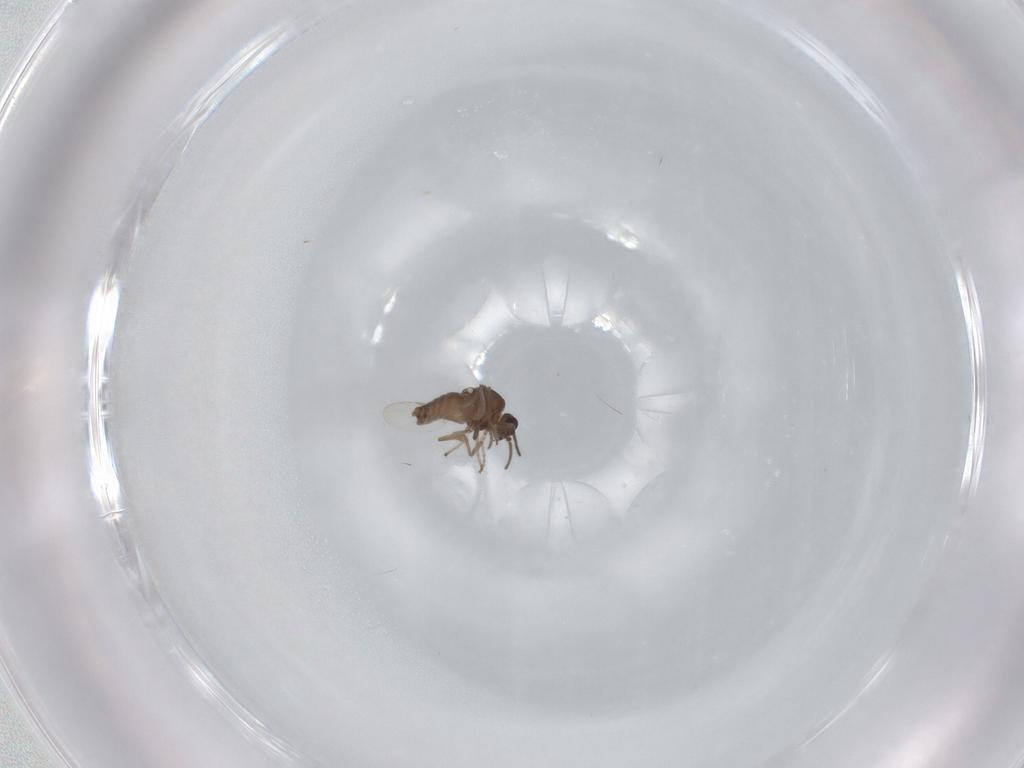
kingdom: Animalia
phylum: Arthropoda
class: Insecta
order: Diptera
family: Ceratopogonidae
